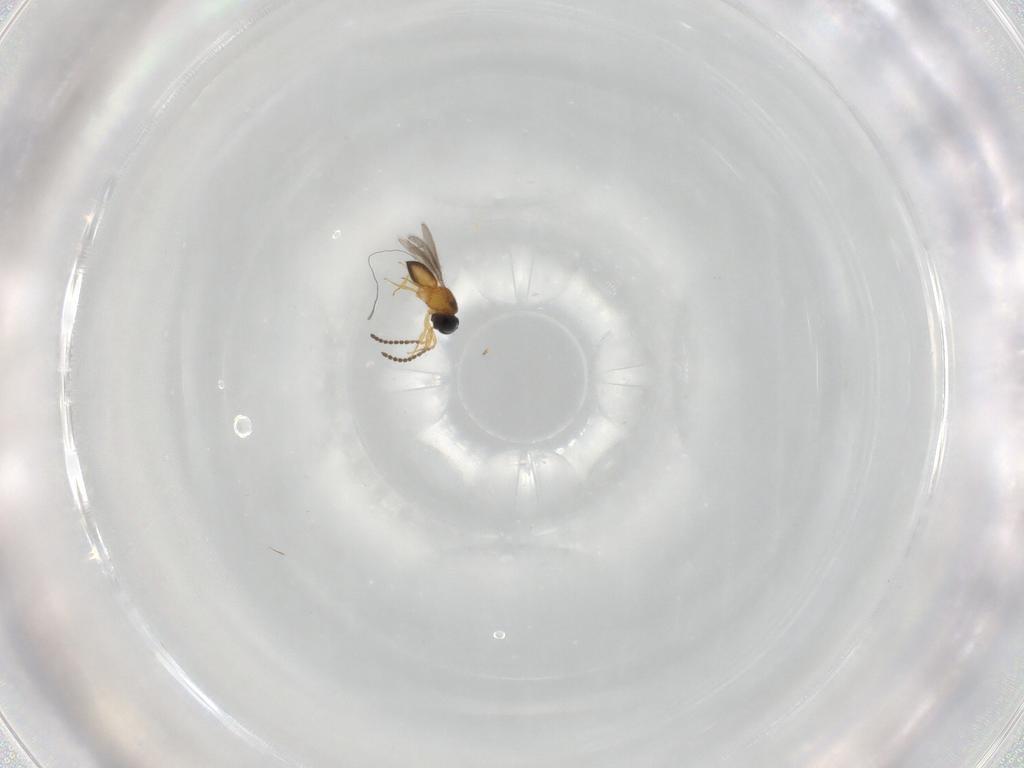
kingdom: Animalia
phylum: Arthropoda
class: Insecta
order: Hymenoptera
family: Scelionidae
